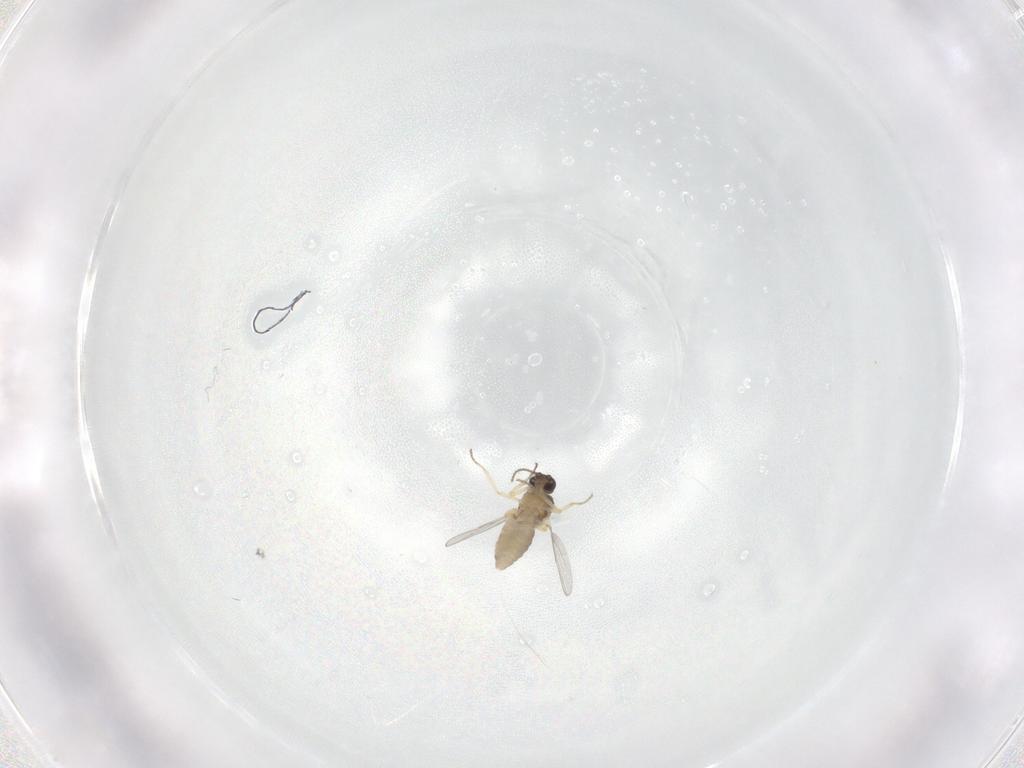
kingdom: Animalia
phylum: Arthropoda
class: Insecta
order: Diptera
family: Ceratopogonidae
